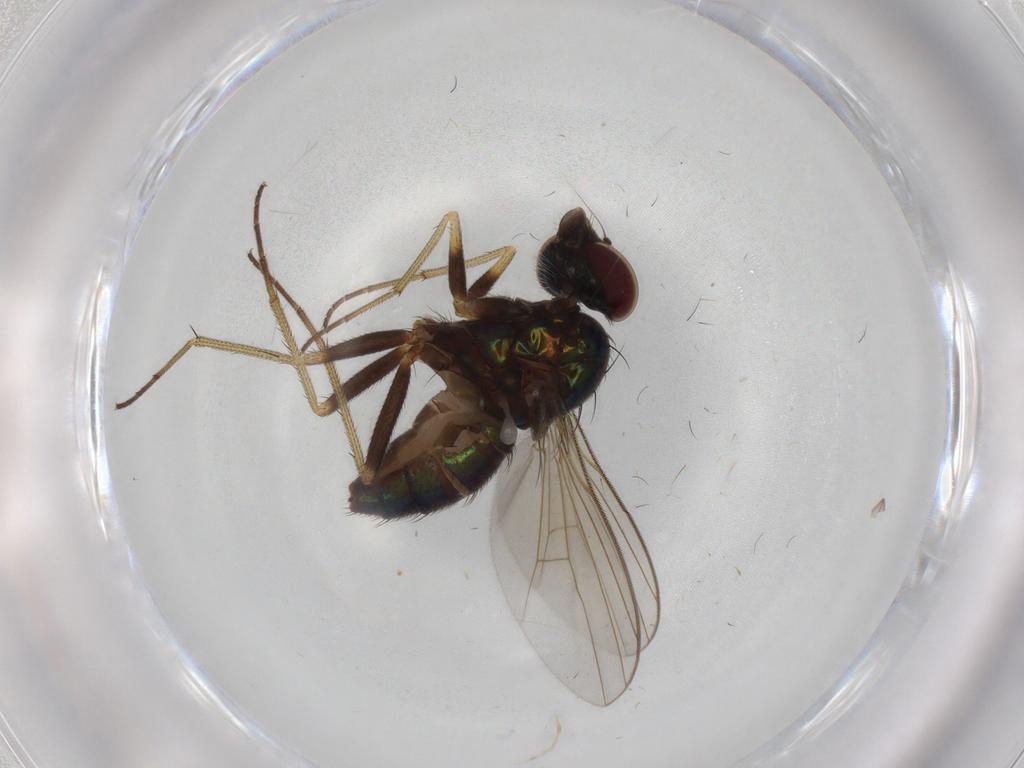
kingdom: Animalia
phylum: Arthropoda
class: Insecta
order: Diptera
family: Dolichopodidae
